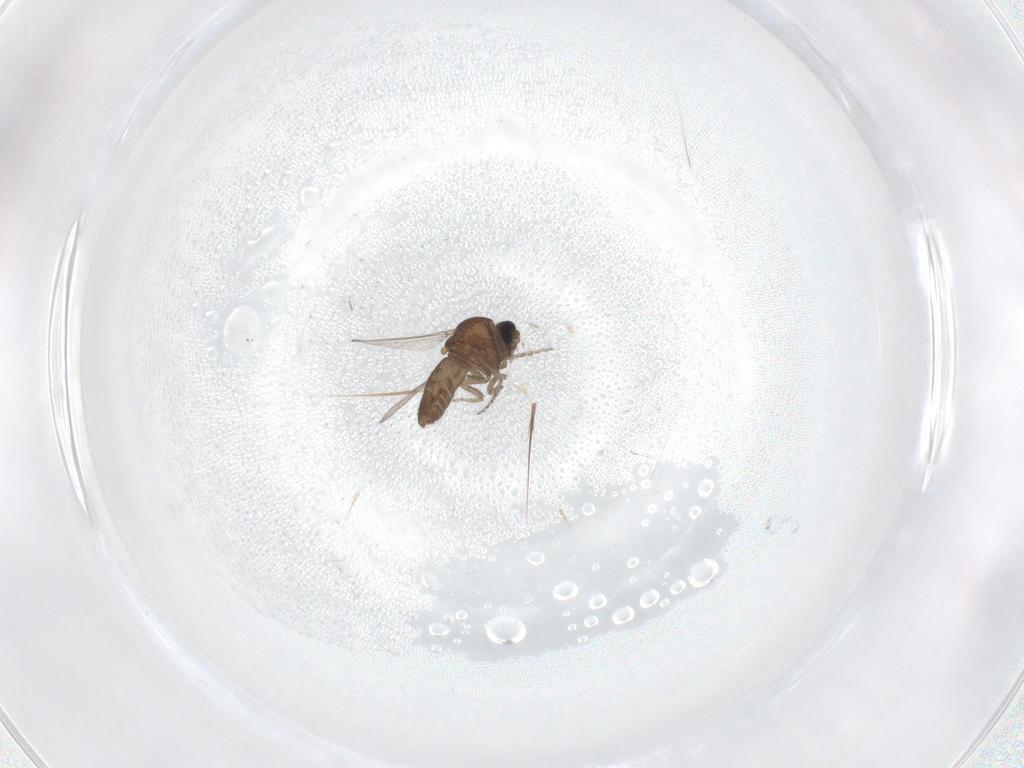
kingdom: Animalia
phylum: Arthropoda
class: Insecta
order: Diptera
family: Ceratopogonidae
